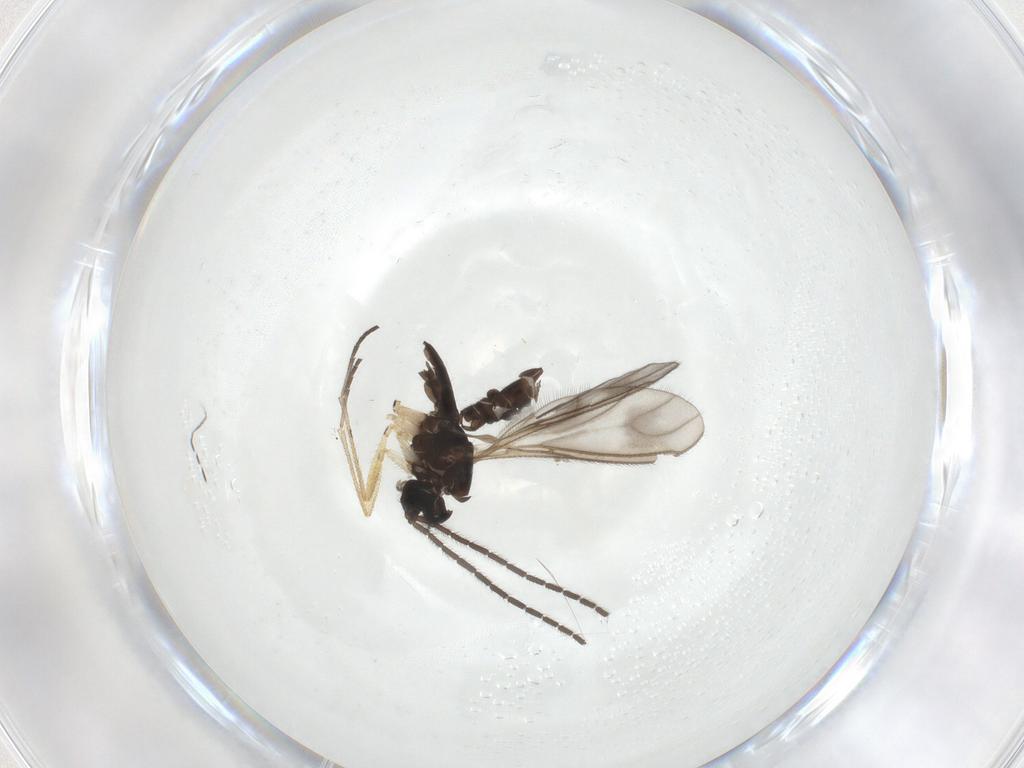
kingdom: Animalia
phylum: Arthropoda
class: Insecta
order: Diptera
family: Sciaridae
